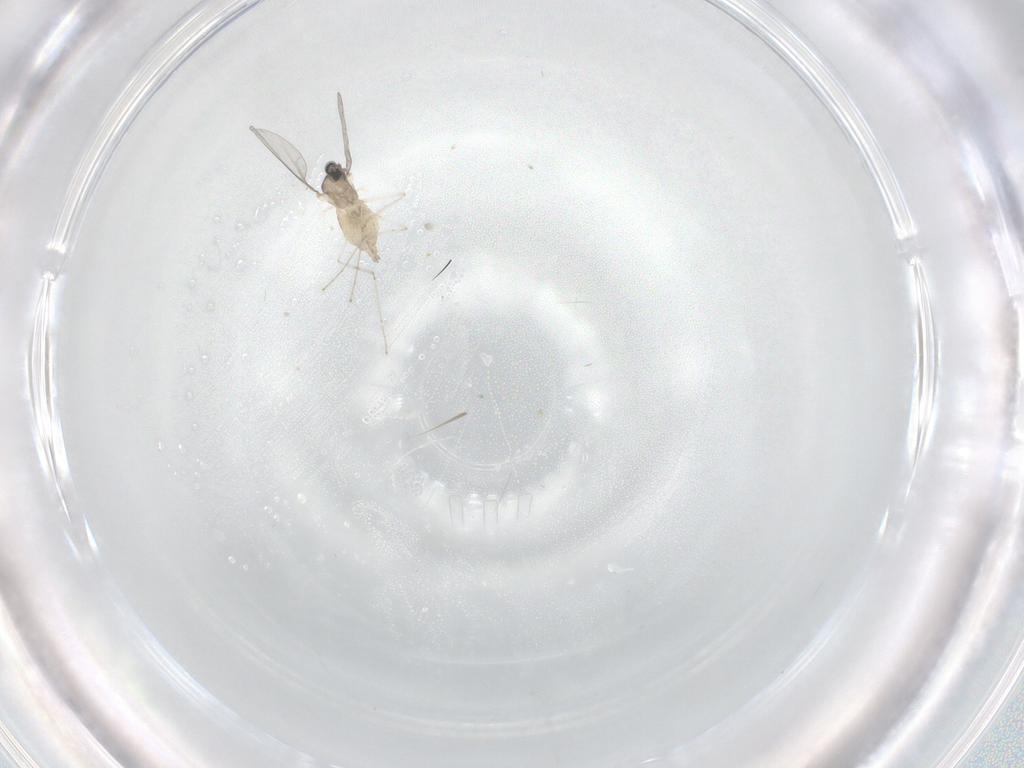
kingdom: Animalia
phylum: Arthropoda
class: Insecta
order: Diptera
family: Cecidomyiidae
